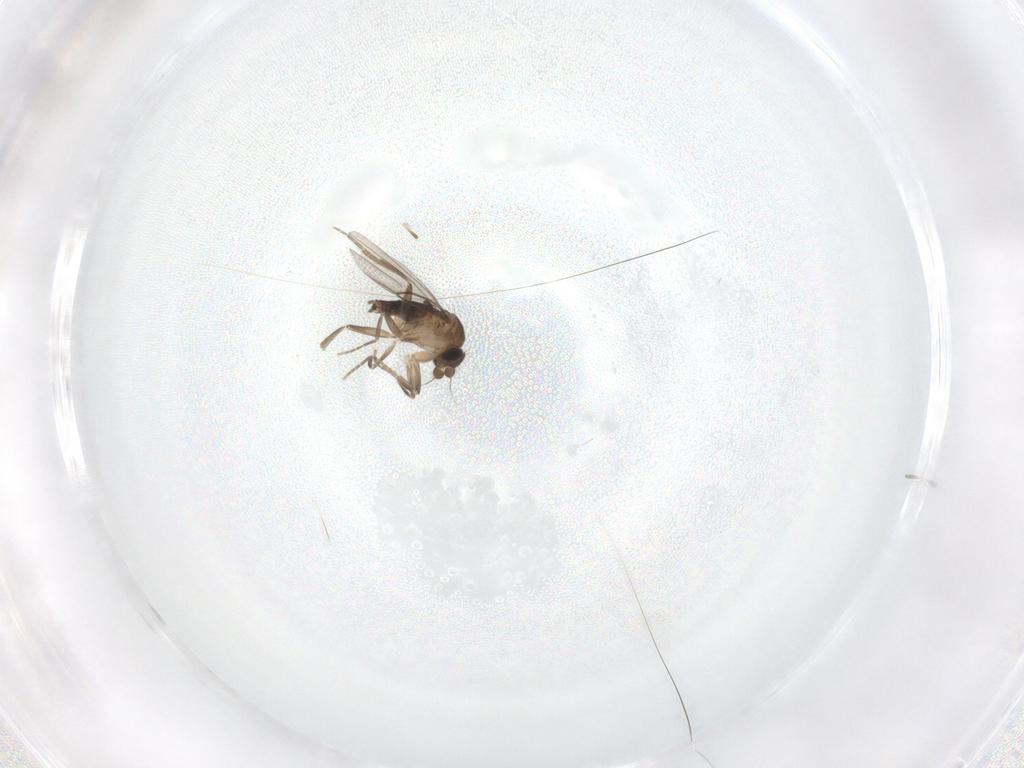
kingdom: Animalia
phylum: Arthropoda
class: Insecta
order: Diptera
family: Phoridae
